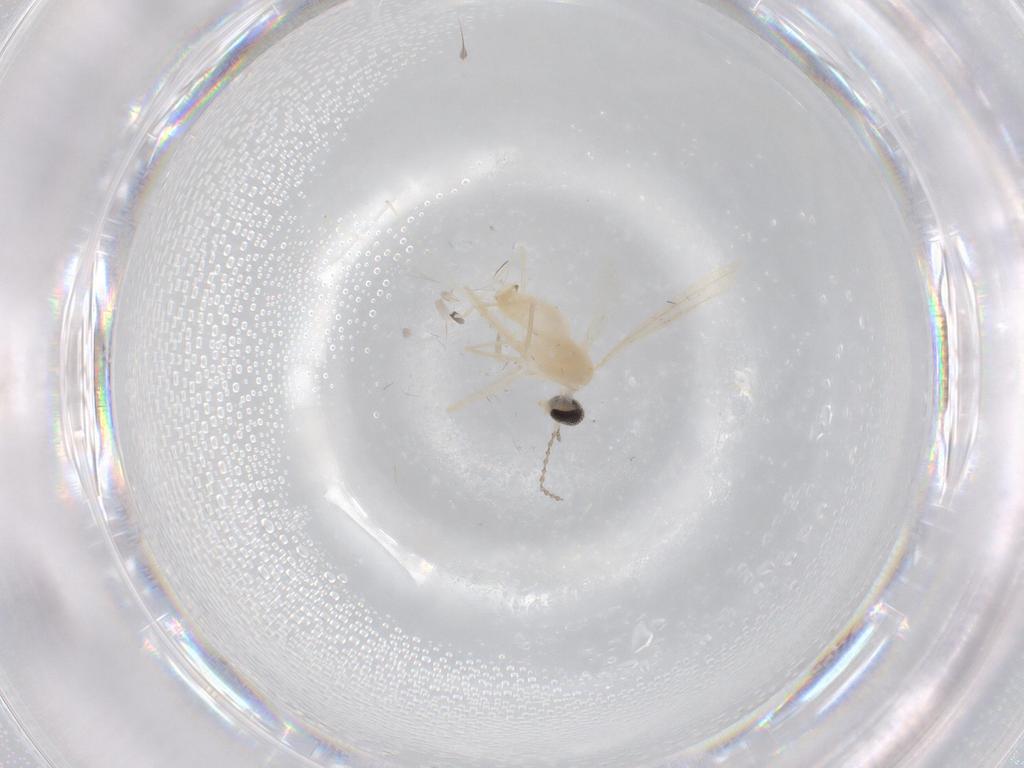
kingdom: Animalia
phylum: Arthropoda
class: Insecta
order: Diptera
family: Cecidomyiidae
